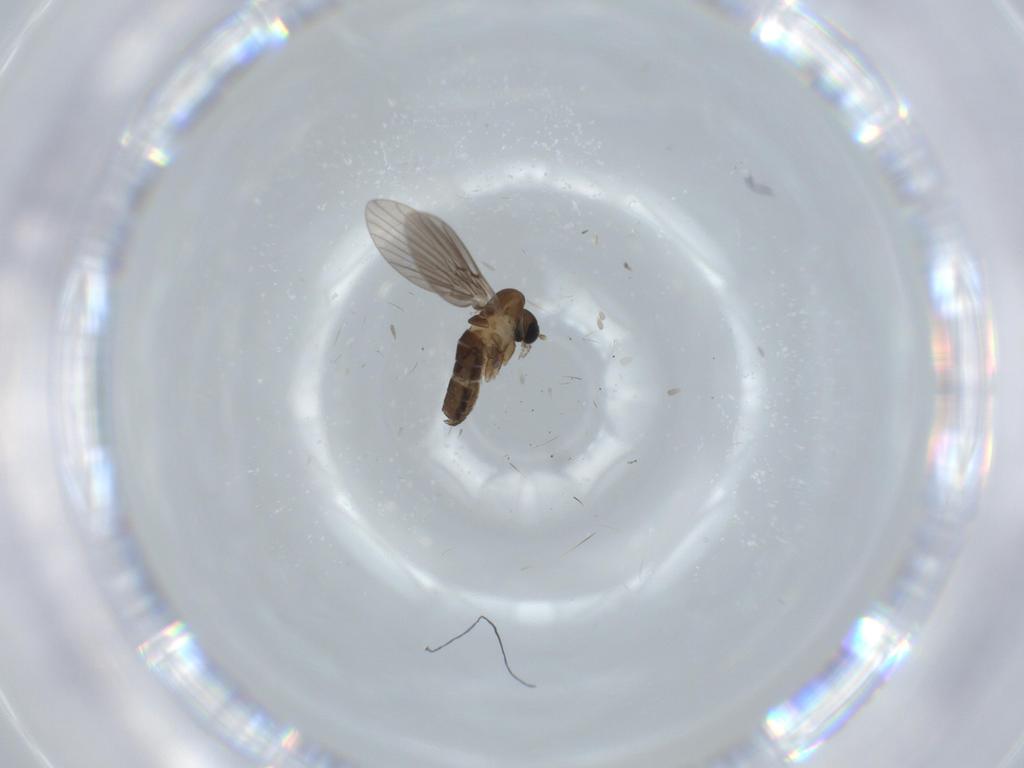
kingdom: Animalia
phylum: Arthropoda
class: Insecta
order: Diptera
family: Psychodidae
